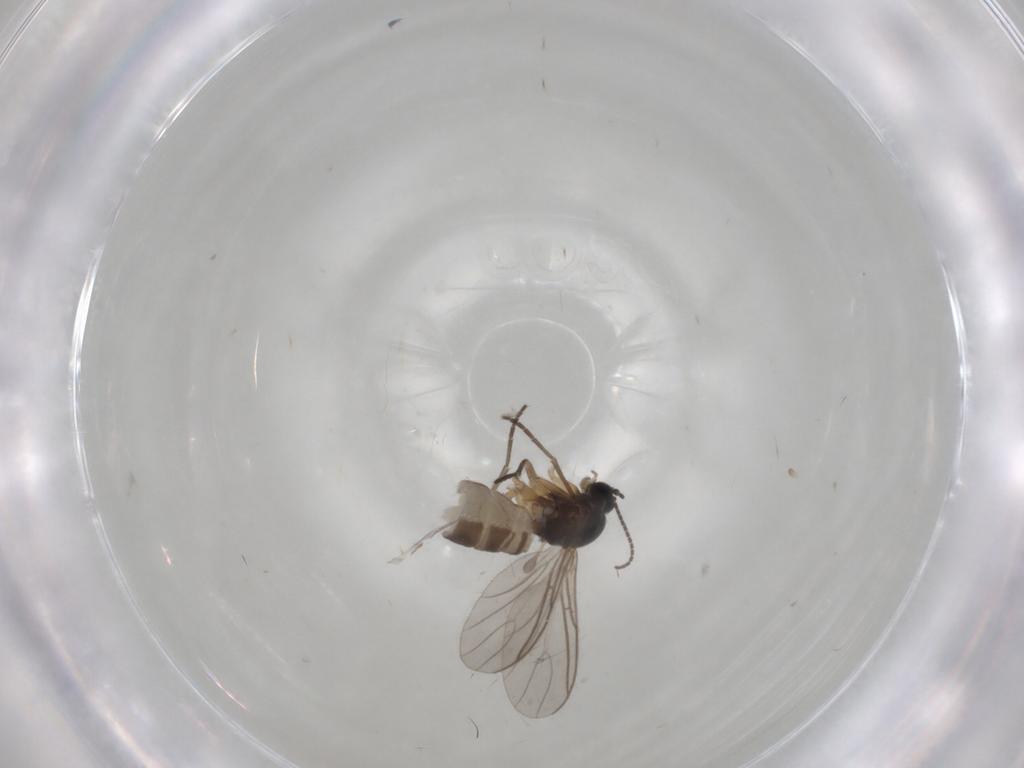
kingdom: Animalia
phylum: Arthropoda
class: Insecta
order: Diptera
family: Sciaridae
